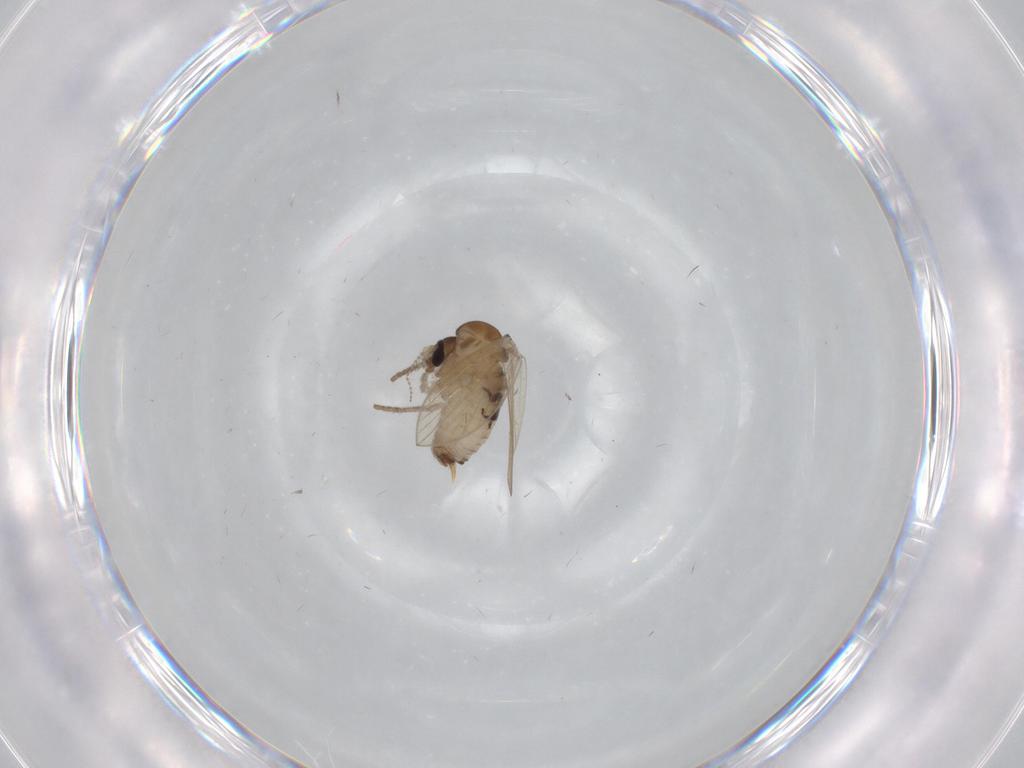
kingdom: Animalia
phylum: Arthropoda
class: Insecta
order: Diptera
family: Psychodidae
